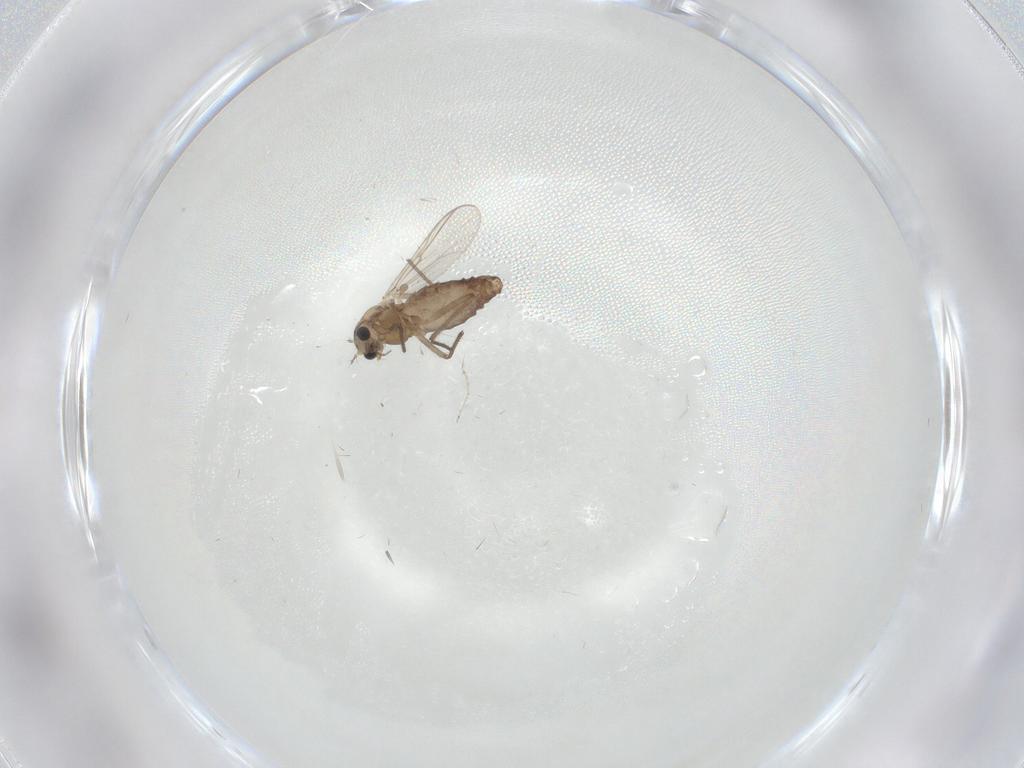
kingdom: Animalia
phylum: Arthropoda
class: Insecta
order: Diptera
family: Chironomidae
